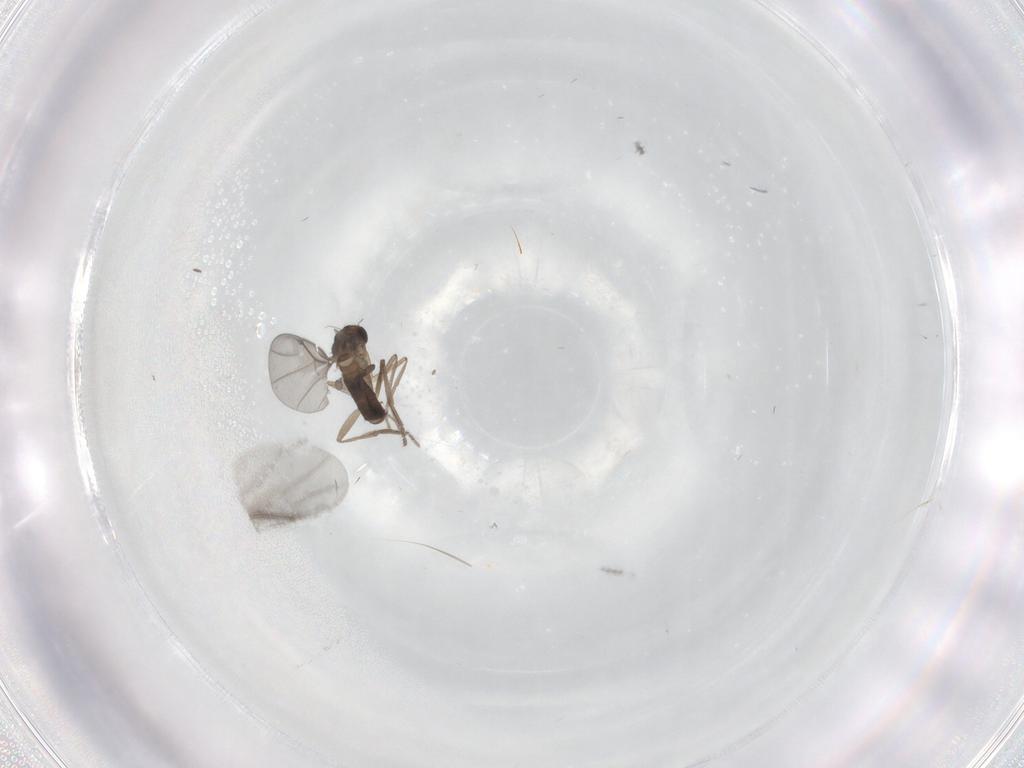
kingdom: Animalia
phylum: Arthropoda
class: Insecta
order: Diptera
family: Phoridae
